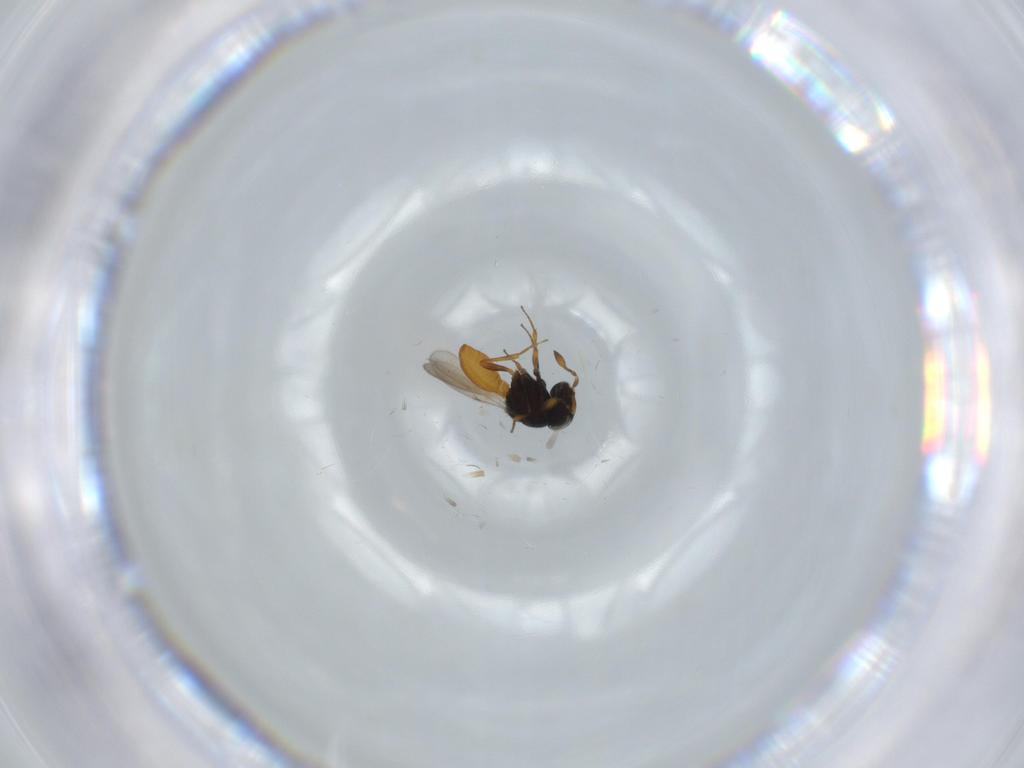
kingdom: Animalia
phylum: Arthropoda
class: Insecta
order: Hymenoptera
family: Scelionidae
